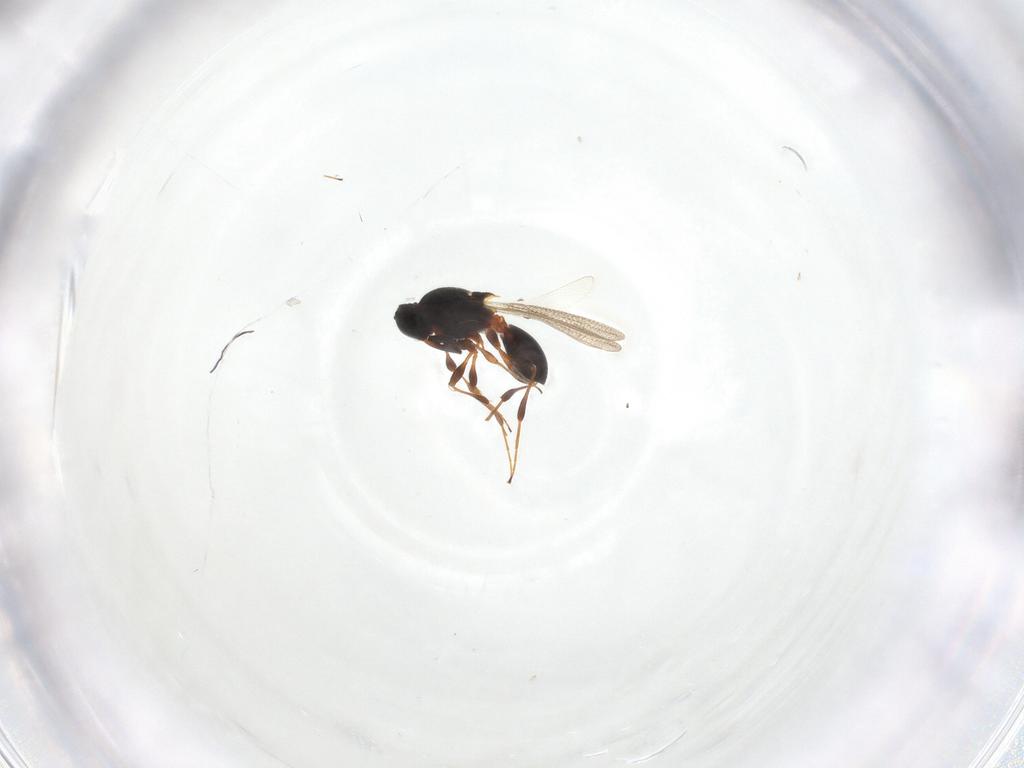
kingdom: Animalia
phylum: Arthropoda
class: Insecta
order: Hymenoptera
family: Platygastridae
